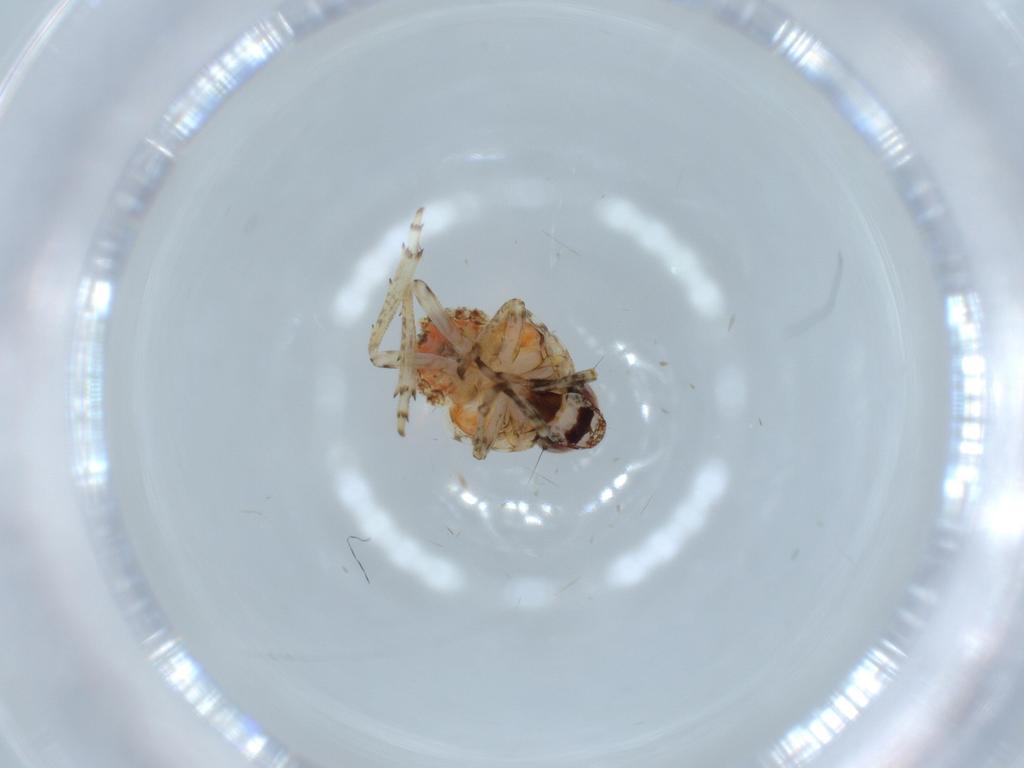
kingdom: Animalia
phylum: Arthropoda
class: Insecta
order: Hemiptera
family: Issidae
